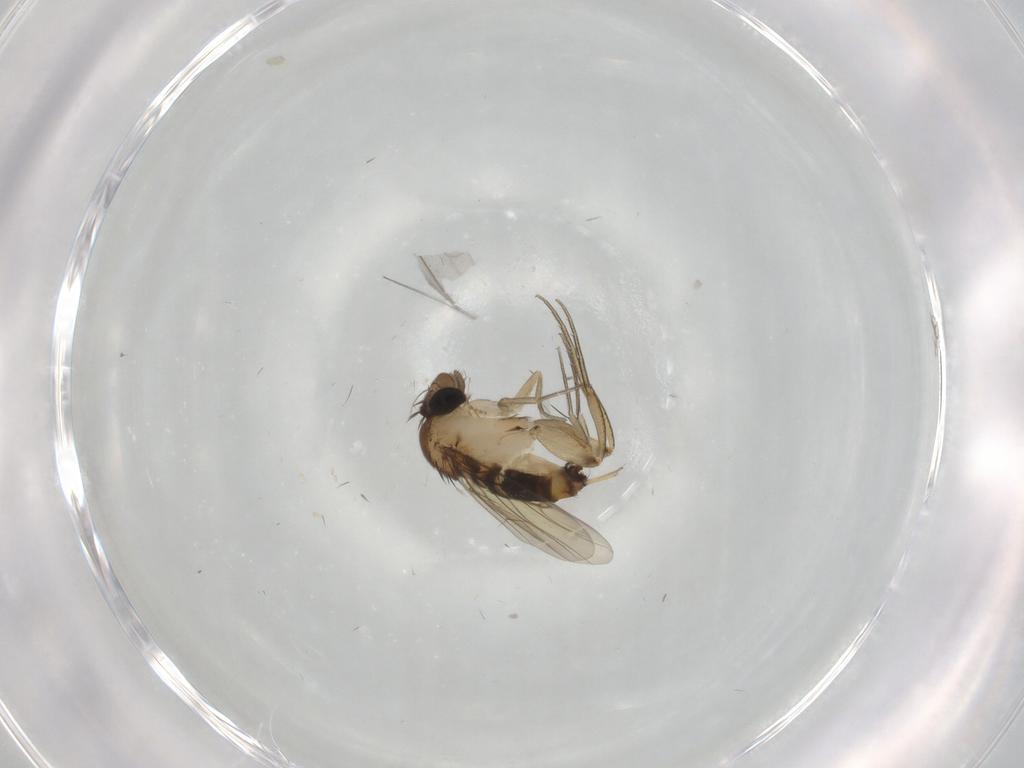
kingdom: Animalia
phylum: Arthropoda
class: Insecta
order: Diptera
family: Phoridae
